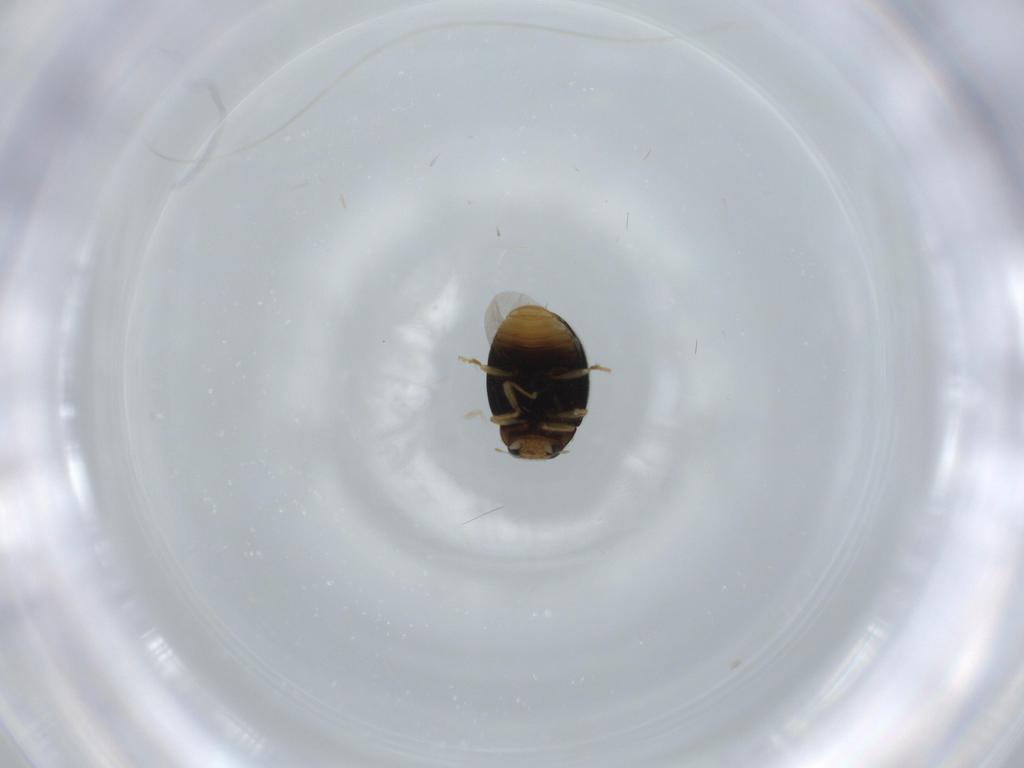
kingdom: Animalia
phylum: Arthropoda
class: Insecta
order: Coleoptera
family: Coccinellidae
